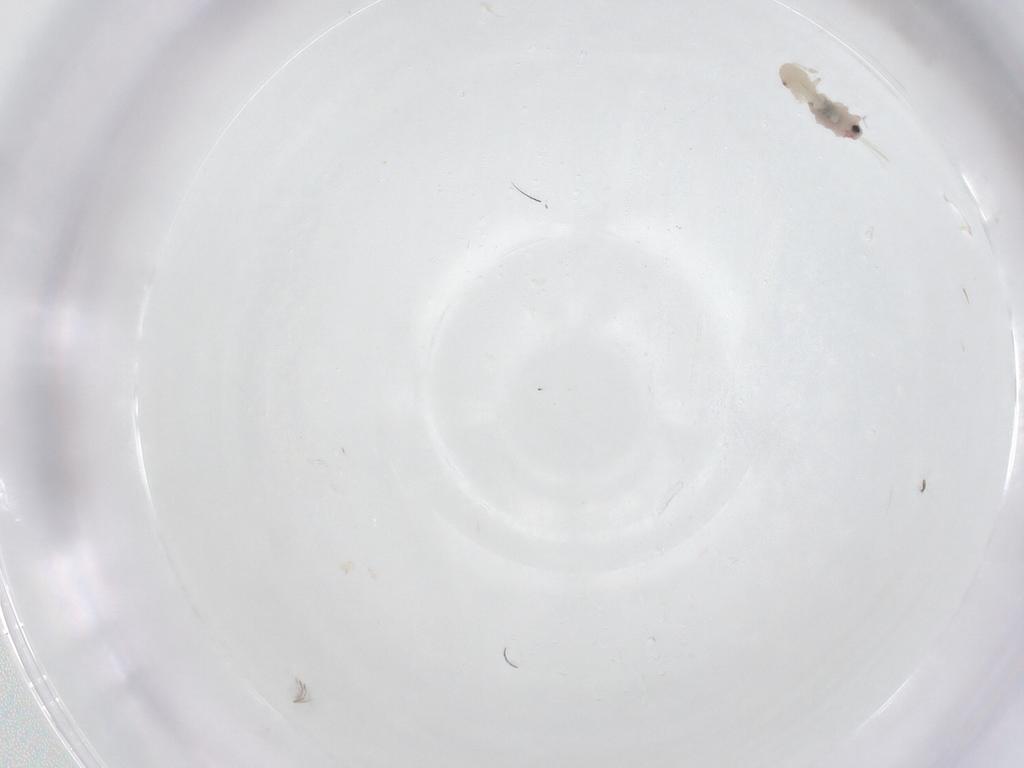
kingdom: Animalia
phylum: Arthropoda
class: Arachnida
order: Araneae
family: Anyphaenidae
